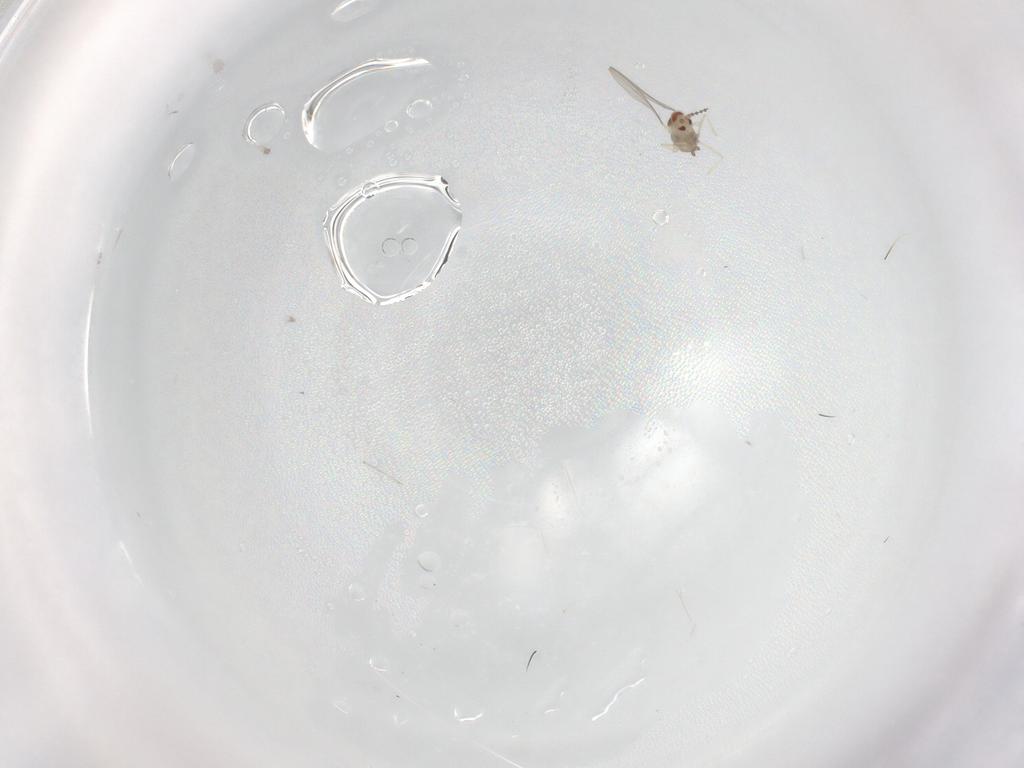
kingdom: Animalia
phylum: Arthropoda
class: Insecta
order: Diptera
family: Cecidomyiidae
